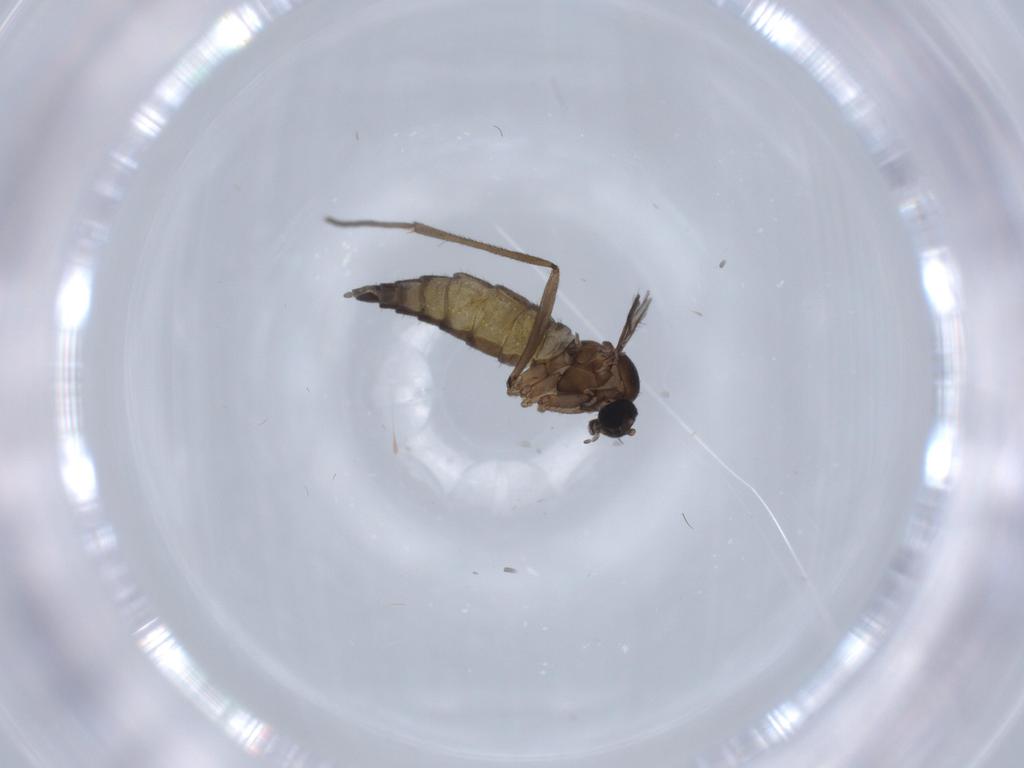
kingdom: Animalia
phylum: Arthropoda
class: Insecta
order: Diptera
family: Sciaridae
